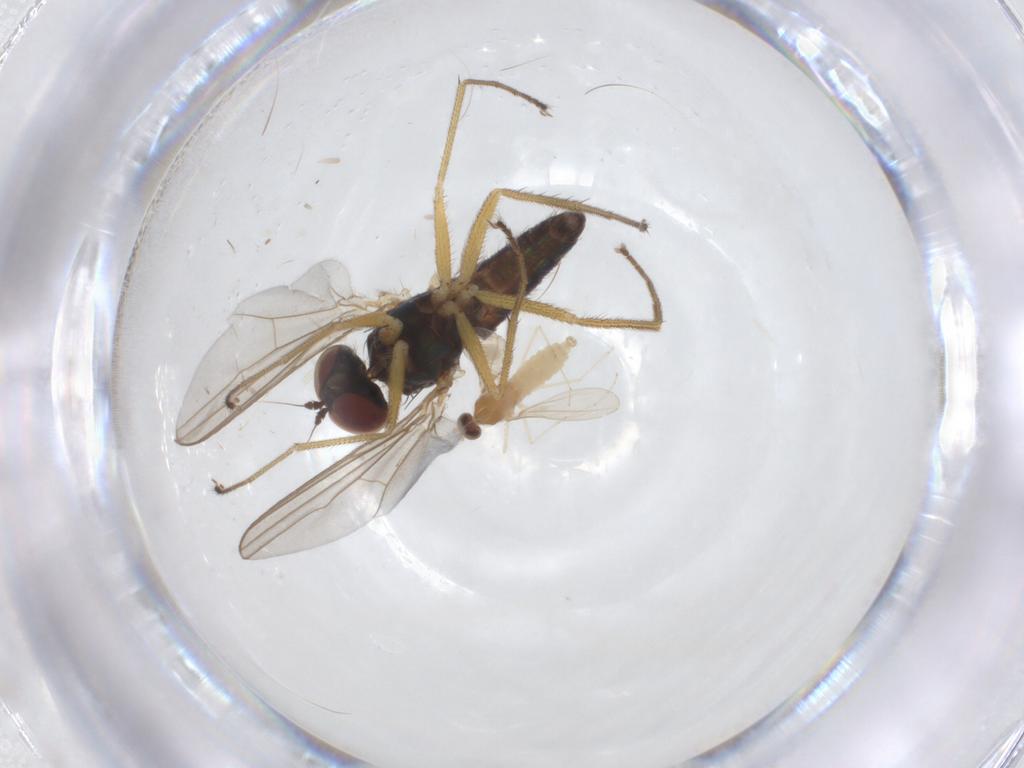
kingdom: Animalia
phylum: Arthropoda
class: Insecta
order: Diptera
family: Dolichopodidae
